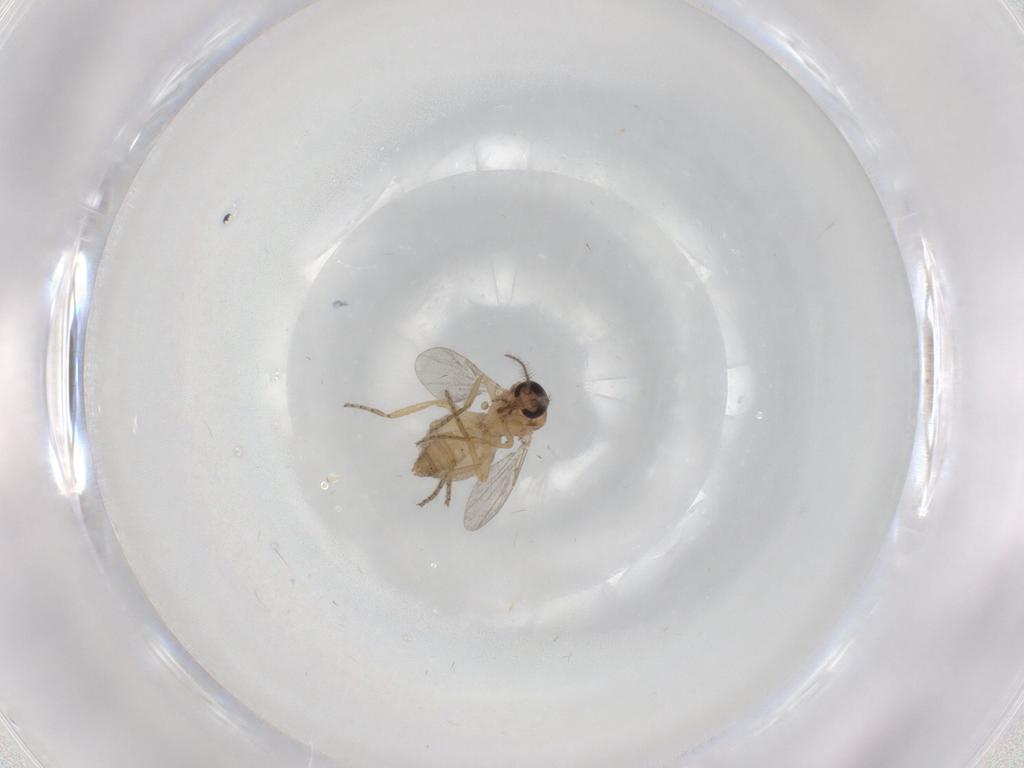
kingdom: Animalia
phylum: Arthropoda
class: Insecta
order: Diptera
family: Ceratopogonidae
